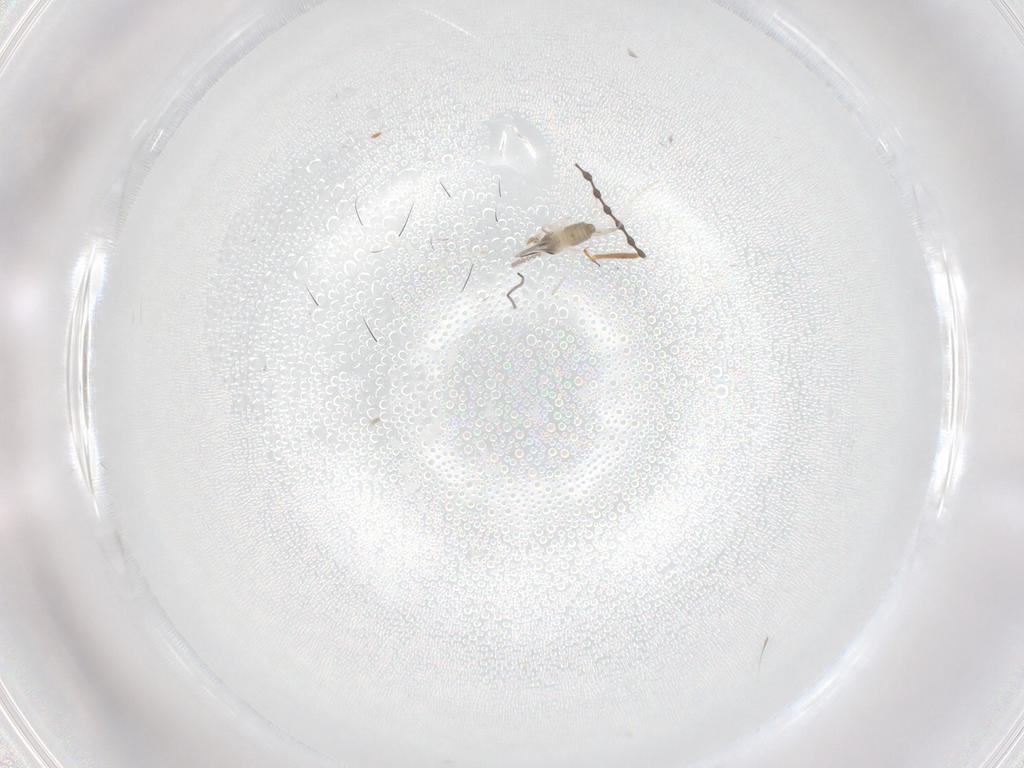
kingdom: Animalia
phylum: Arthropoda
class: Insecta
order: Diptera
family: Cecidomyiidae
